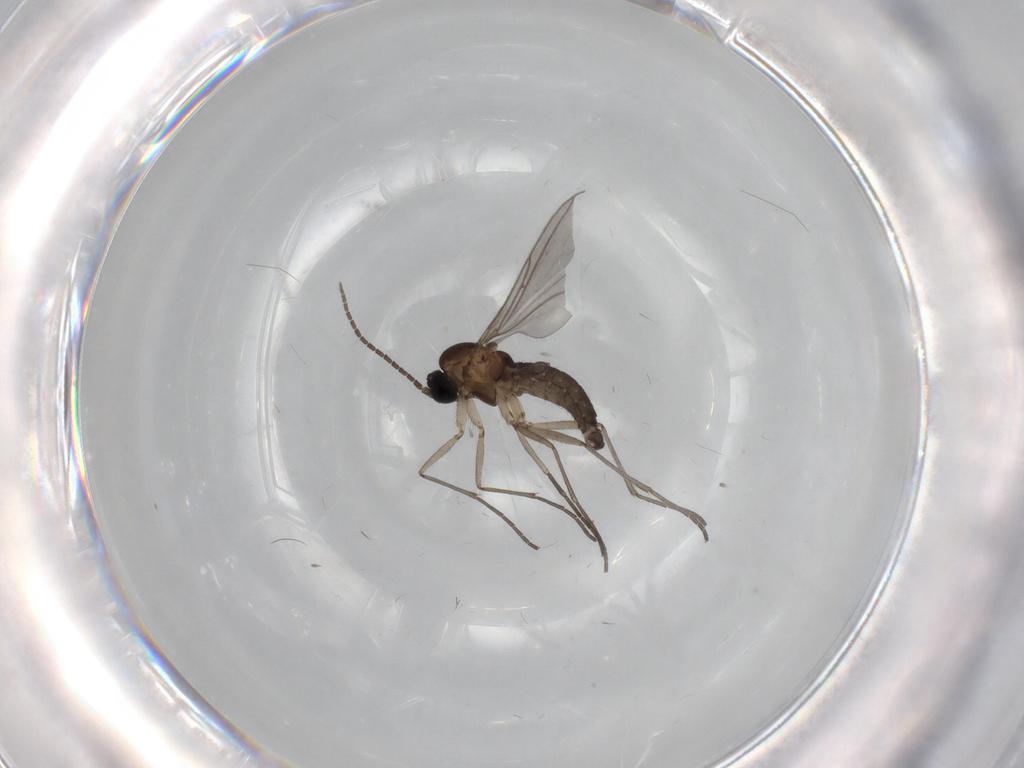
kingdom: Animalia
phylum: Arthropoda
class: Insecta
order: Diptera
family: Sciaridae
